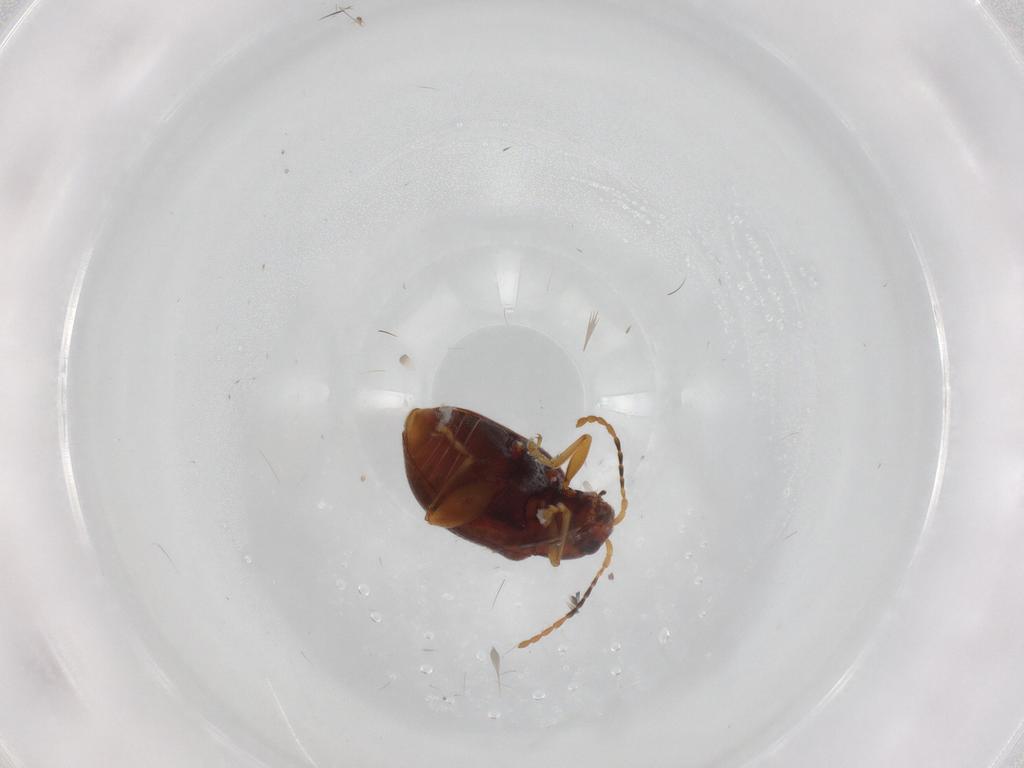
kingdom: Animalia
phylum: Arthropoda
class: Insecta
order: Coleoptera
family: Chrysomelidae
